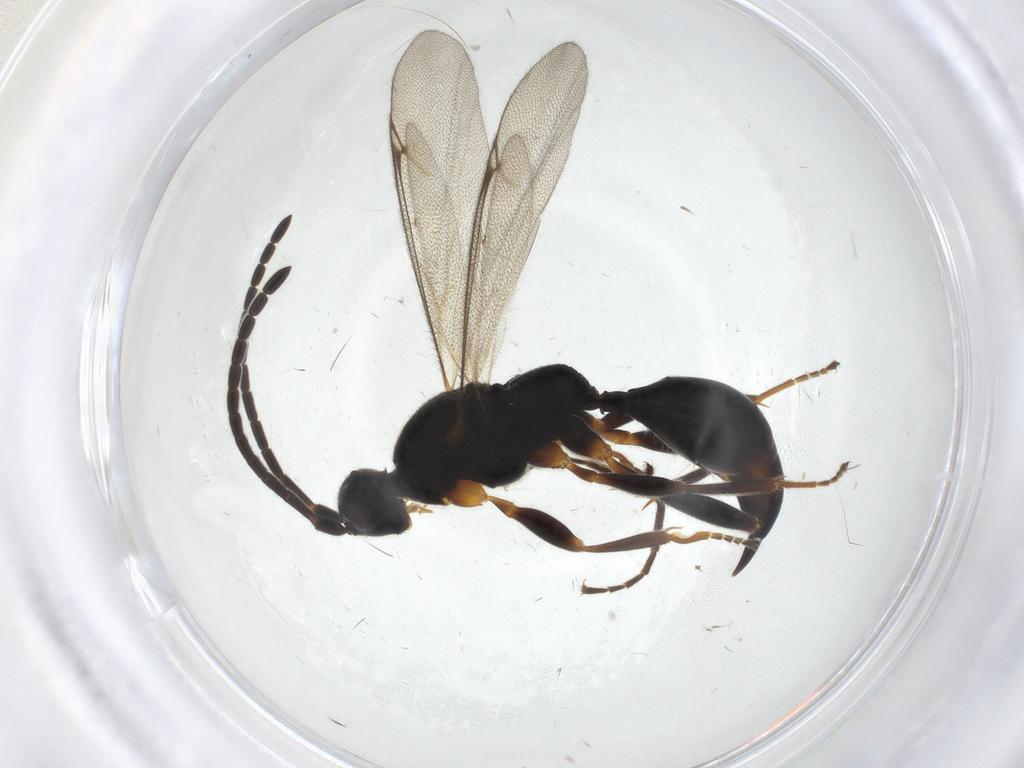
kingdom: Animalia
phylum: Arthropoda
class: Insecta
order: Hymenoptera
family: Proctotrupidae
